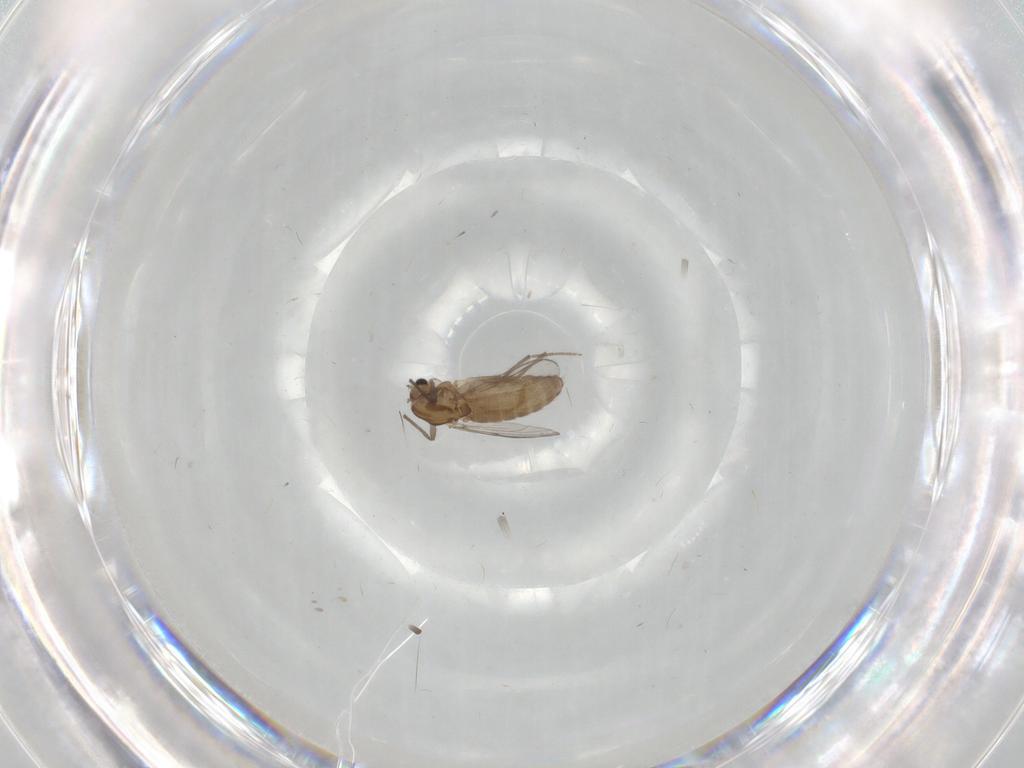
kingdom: Animalia
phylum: Arthropoda
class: Insecta
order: Diptera
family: Chironomidae
